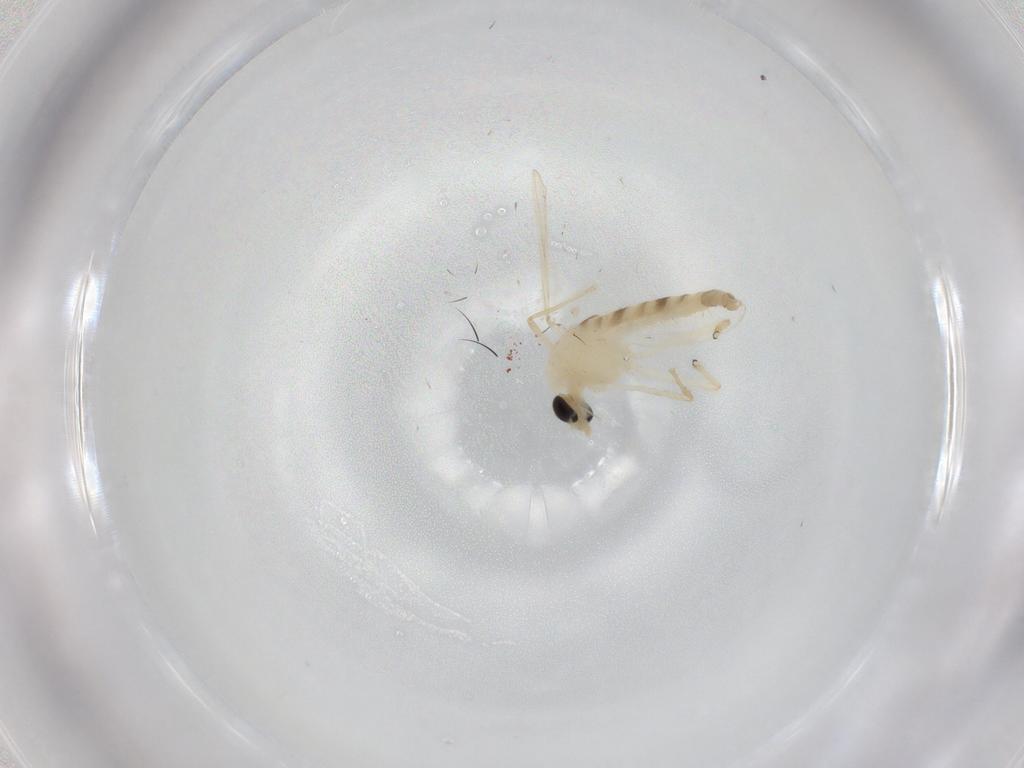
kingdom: Animalia
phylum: Arthropoda
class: Insecta
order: Diptera
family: Chironomidae
